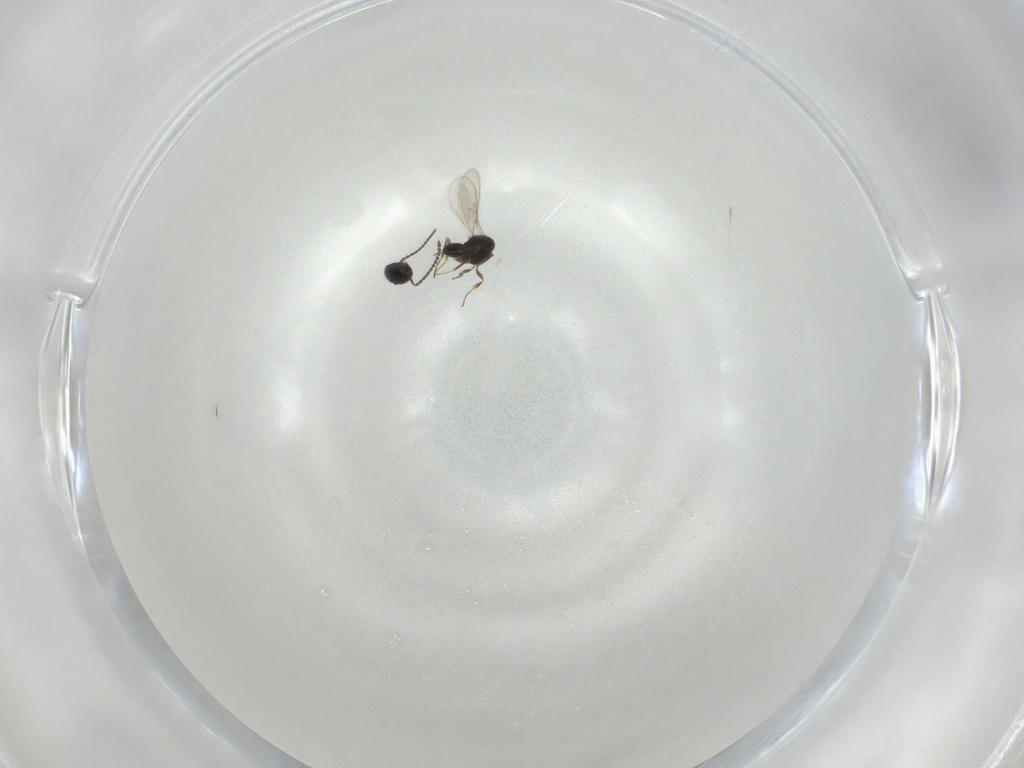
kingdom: Animalia
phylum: Arthropoda
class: Insecta
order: Hymenoptera
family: Scelionidae
